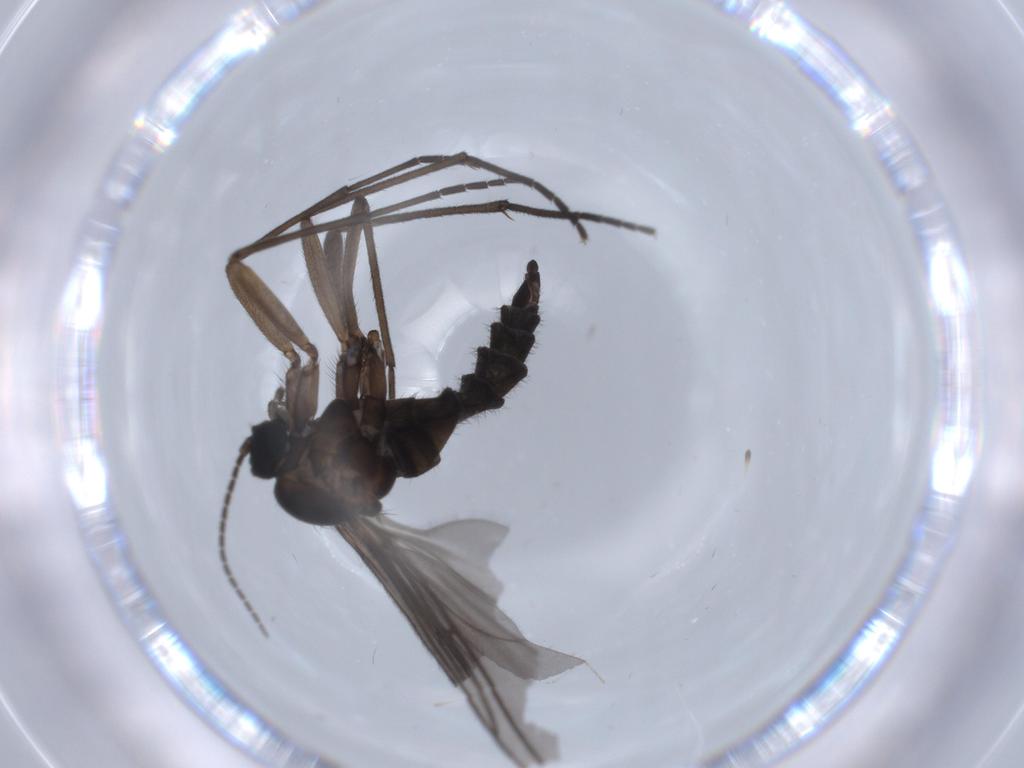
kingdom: Animalia
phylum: Arthropoda
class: Insecta
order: Diptera
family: Sciaridae
